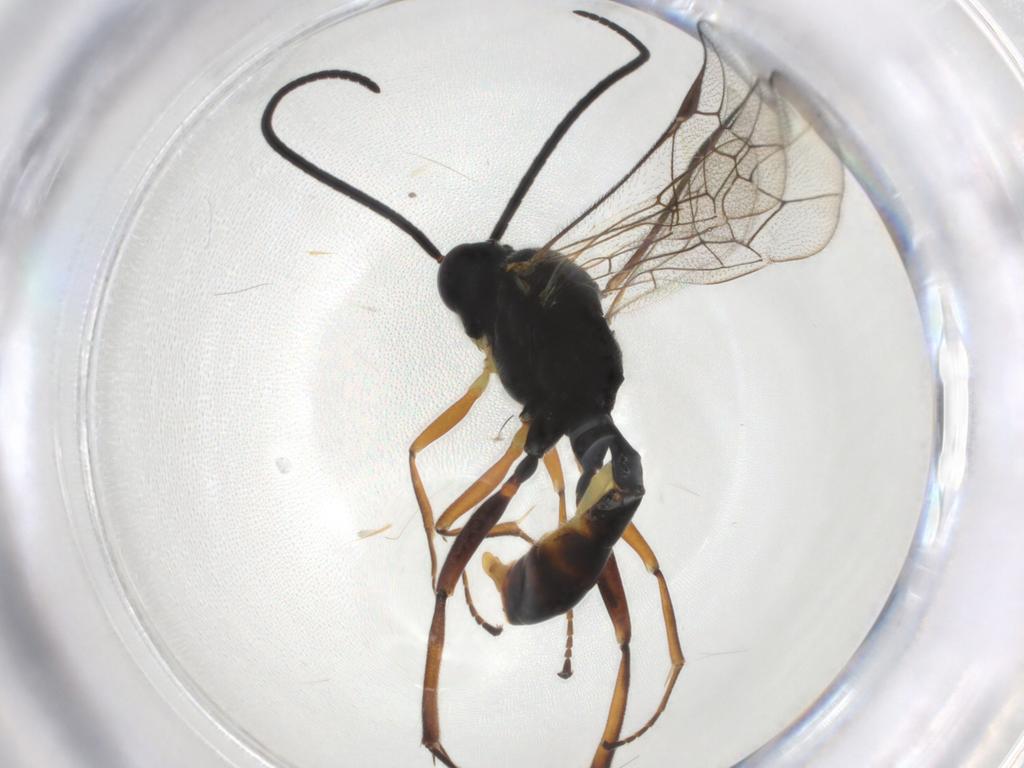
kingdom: Animalia
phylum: Arthropoda
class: Insecta
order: Hymenoptera
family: Ichneumonidae
